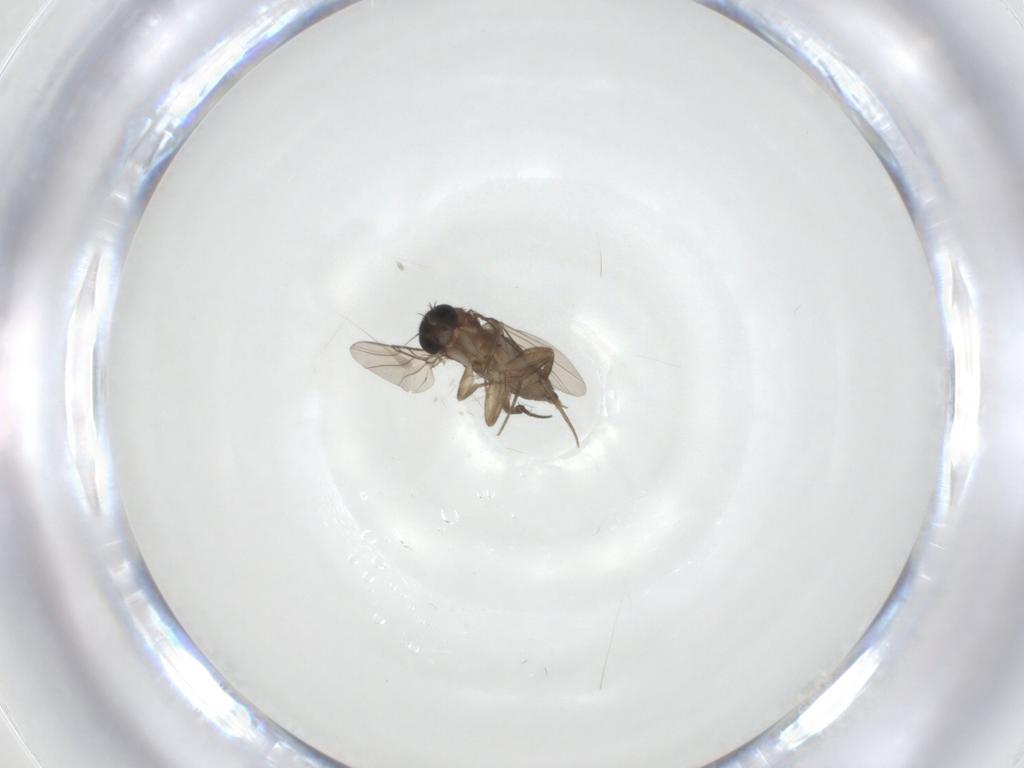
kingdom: Animalia
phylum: Arthropoda
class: Insecta
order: Diptera
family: Phoridae
